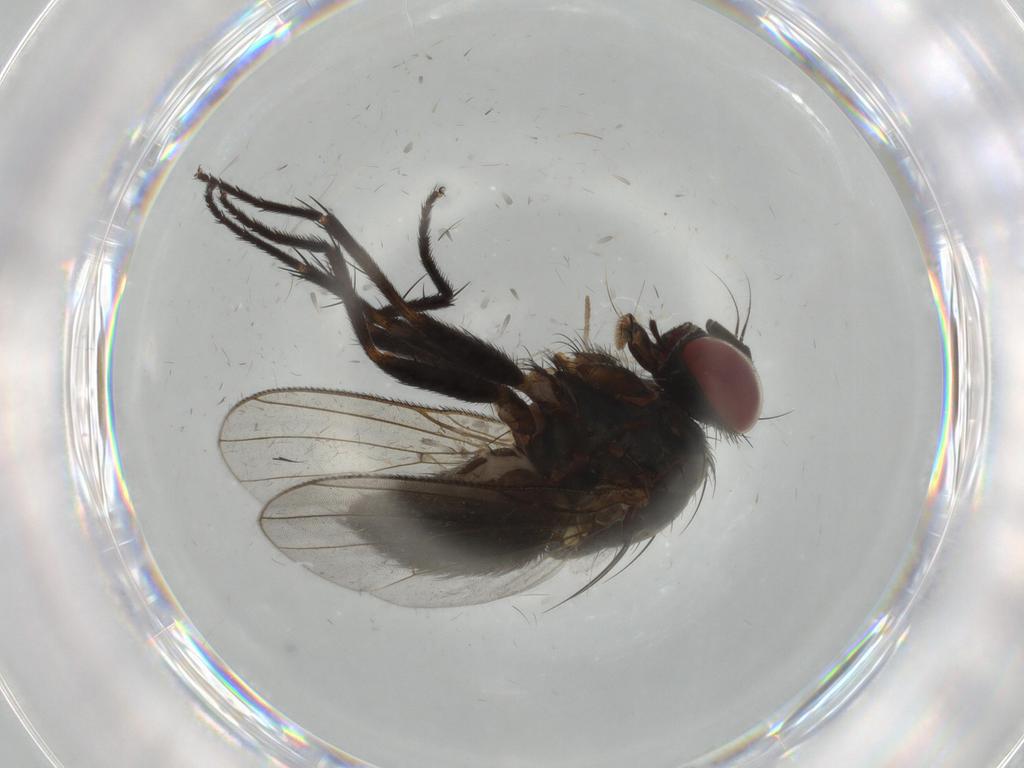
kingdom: Animalia
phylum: Arthropoda
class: Insecta
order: Diptera
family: Muscidae
